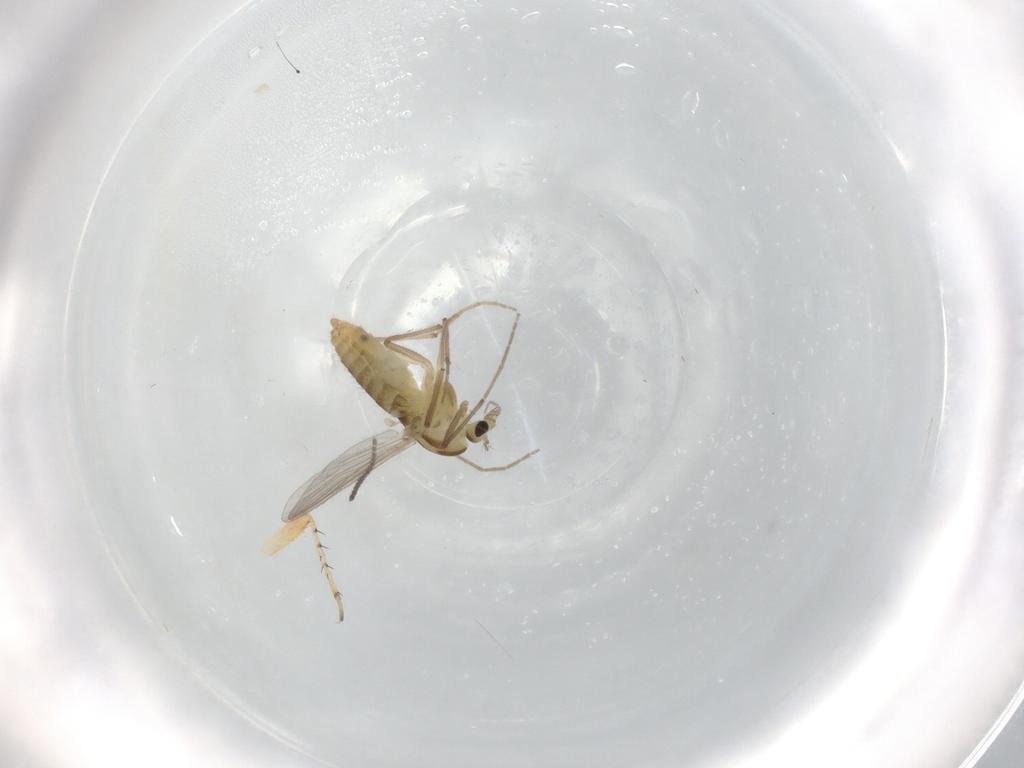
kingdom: Animalia
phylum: Arthropoda
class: Insecta
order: Diptera
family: Chironomidae
